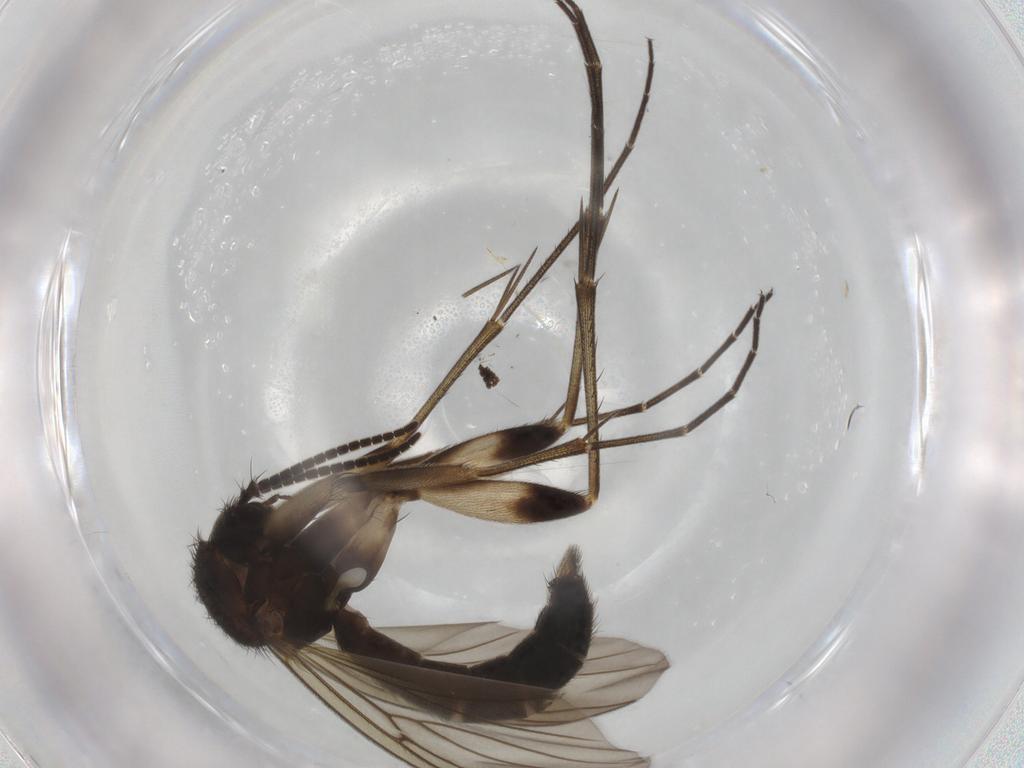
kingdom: Animalia
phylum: Arthropoda
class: Insecta
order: Diptera
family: Mycetophilidae
